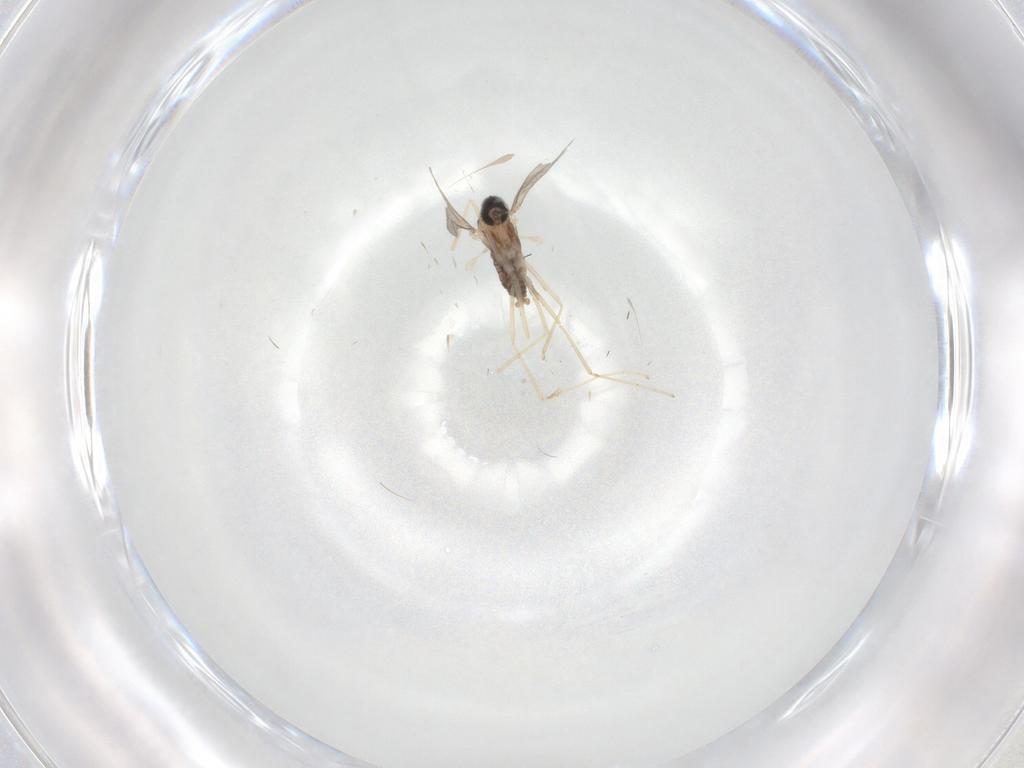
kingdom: Animalia
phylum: Arthropoda
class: Insecta
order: Diptera
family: Cecidomyiidae
